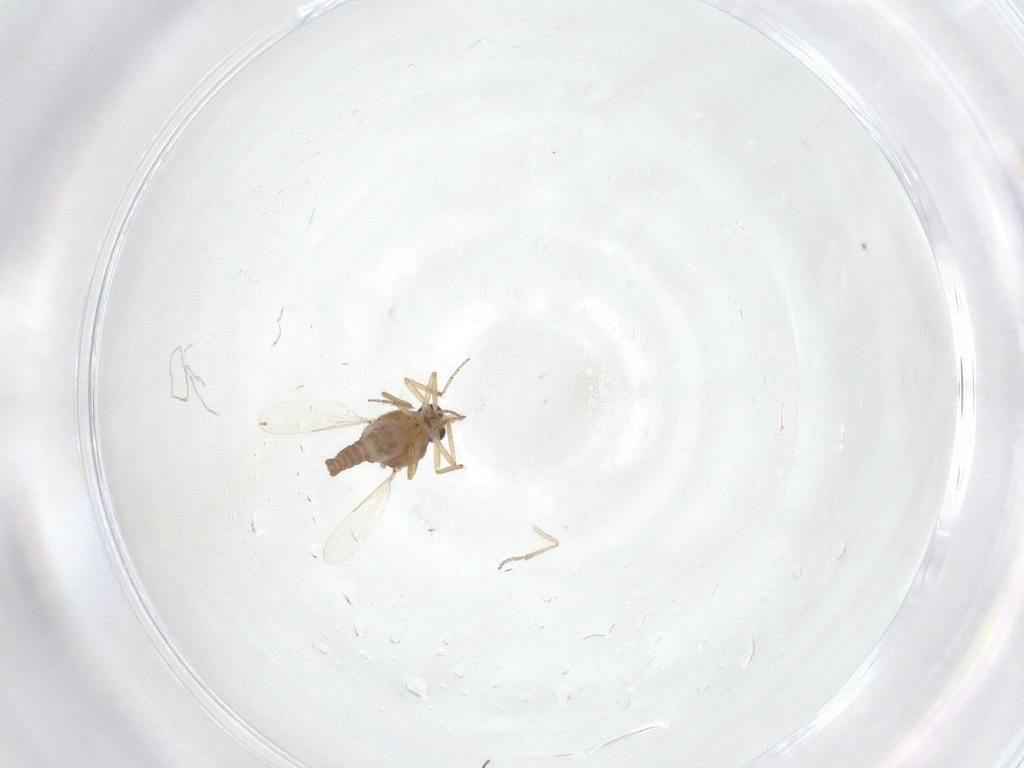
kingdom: Animalia
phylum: Arthropoda
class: Insecta
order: Diptera
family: Ceratopogonidae
